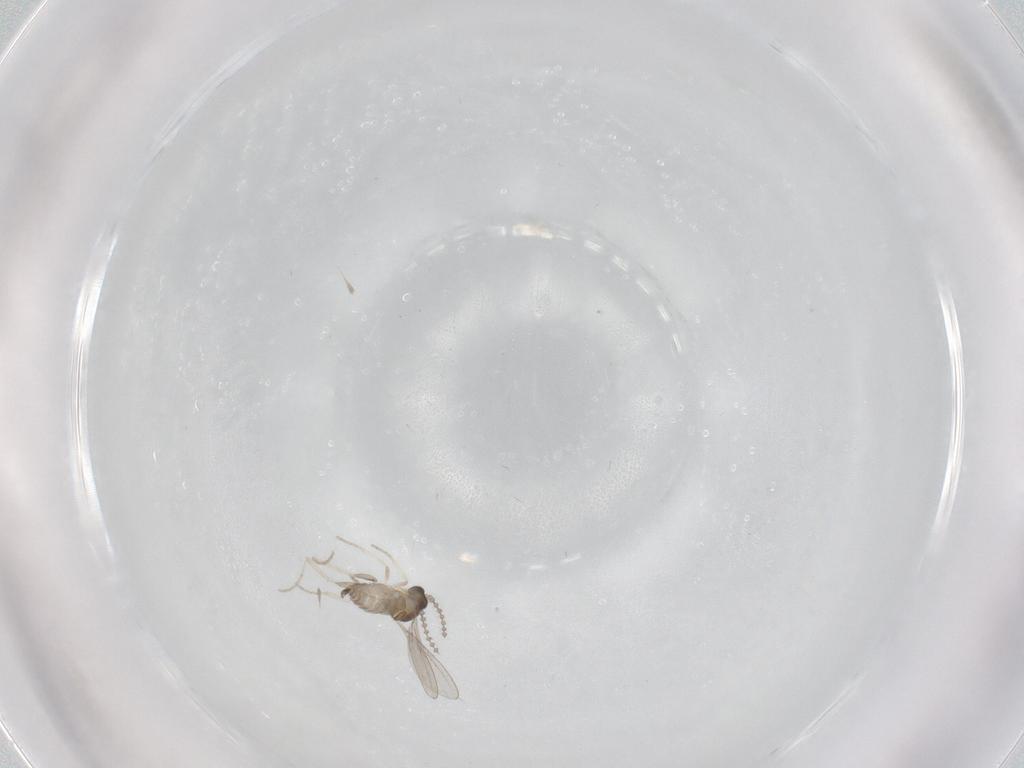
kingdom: Animalia
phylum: Arthropoda
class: Insecta
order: Diptera
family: Cecidomyiidae
